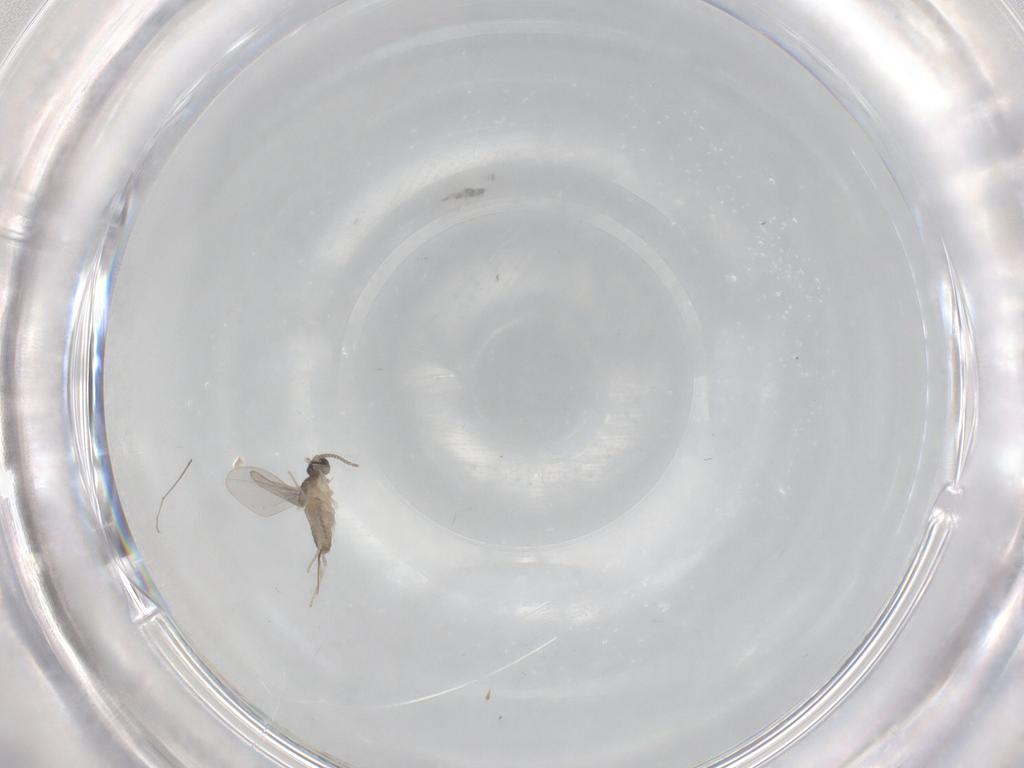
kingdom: Animalia
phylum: Arthropoda
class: Insecta
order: Diptera
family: Cecidomyiidae
